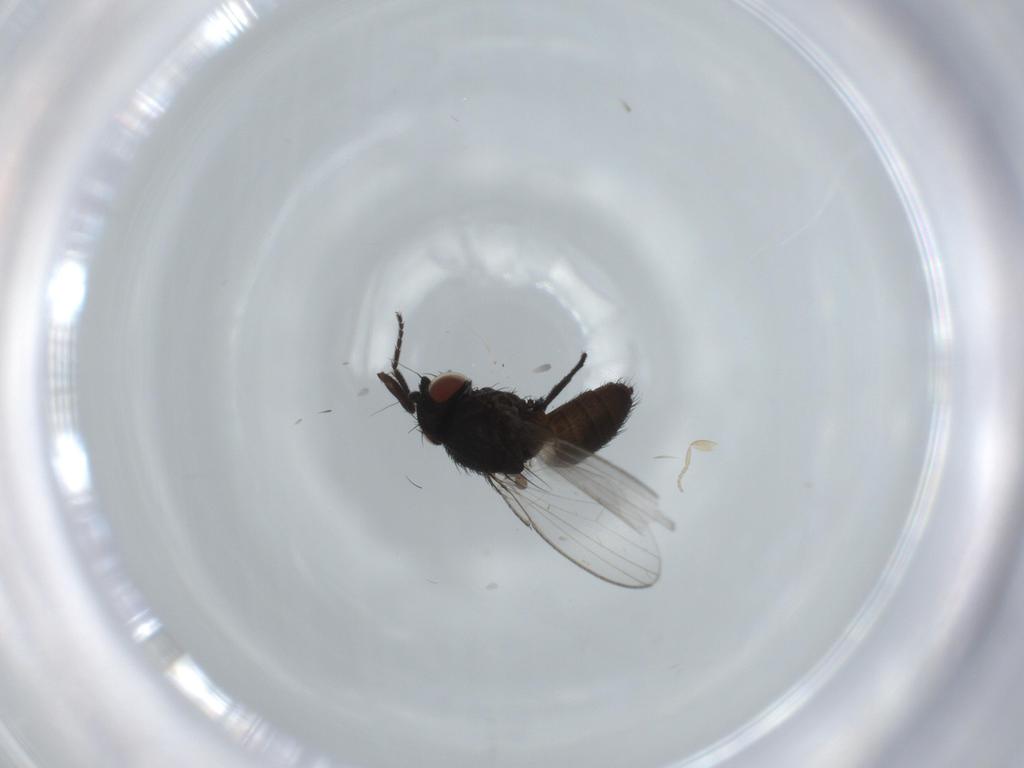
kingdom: Animalia
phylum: Arthropoda
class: Insecta
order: Diptera
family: Milichiidae
